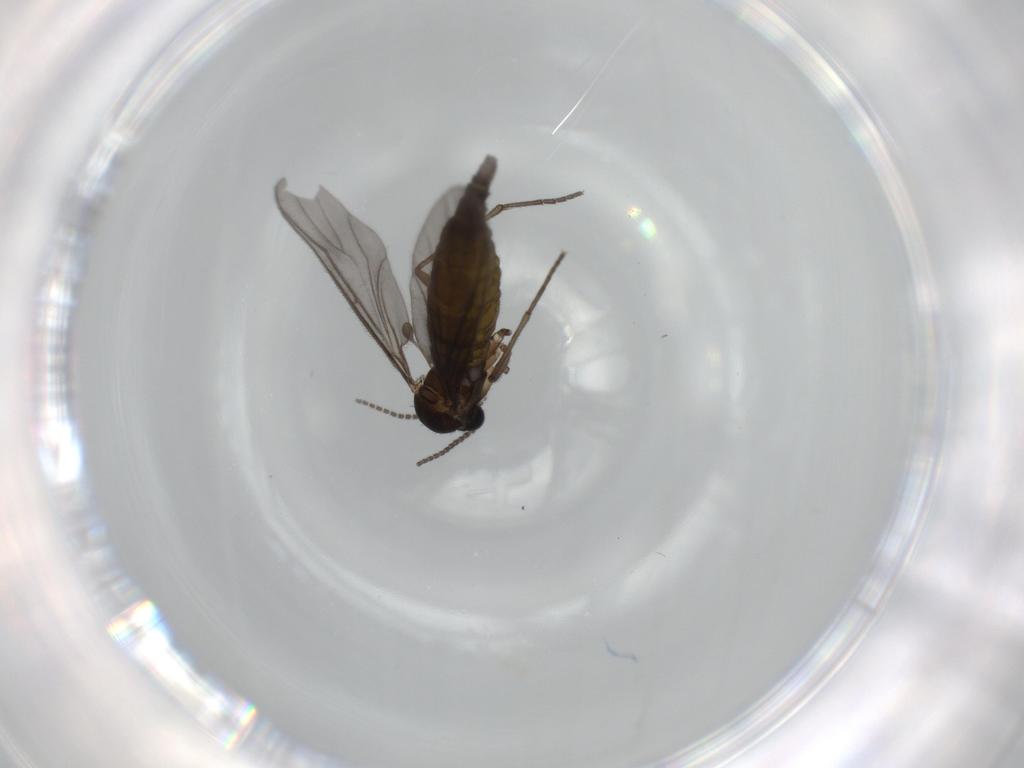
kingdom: Animalia
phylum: Arthropoda
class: Insecta
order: Diptera
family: Sciaridae
